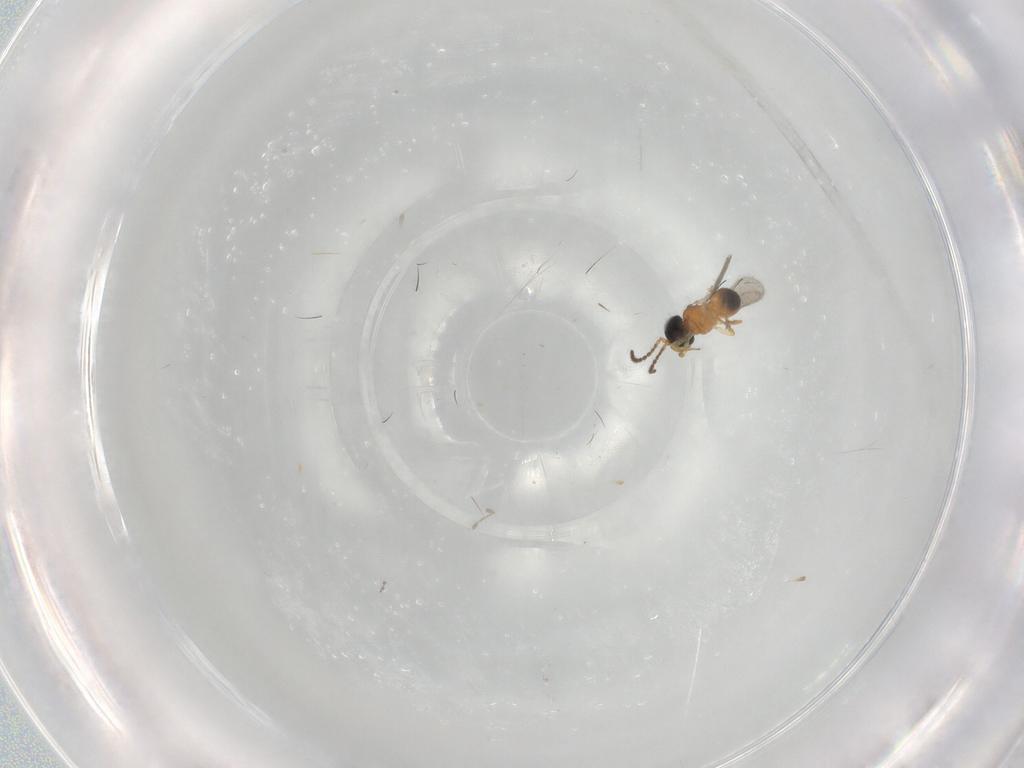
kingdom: Animalia
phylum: Arthropoda
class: Insecta
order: Hymenoptera
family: Scelionidae
